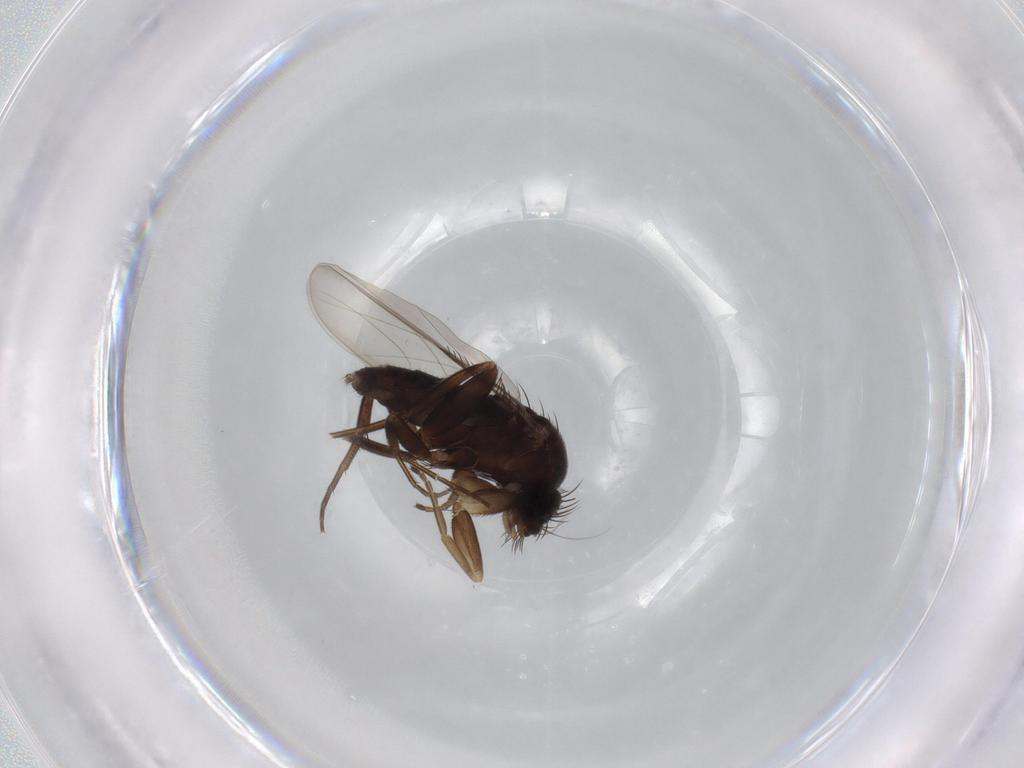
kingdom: Animalia
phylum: Arthropoda
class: Insecta
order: Diptera
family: Phoridae
